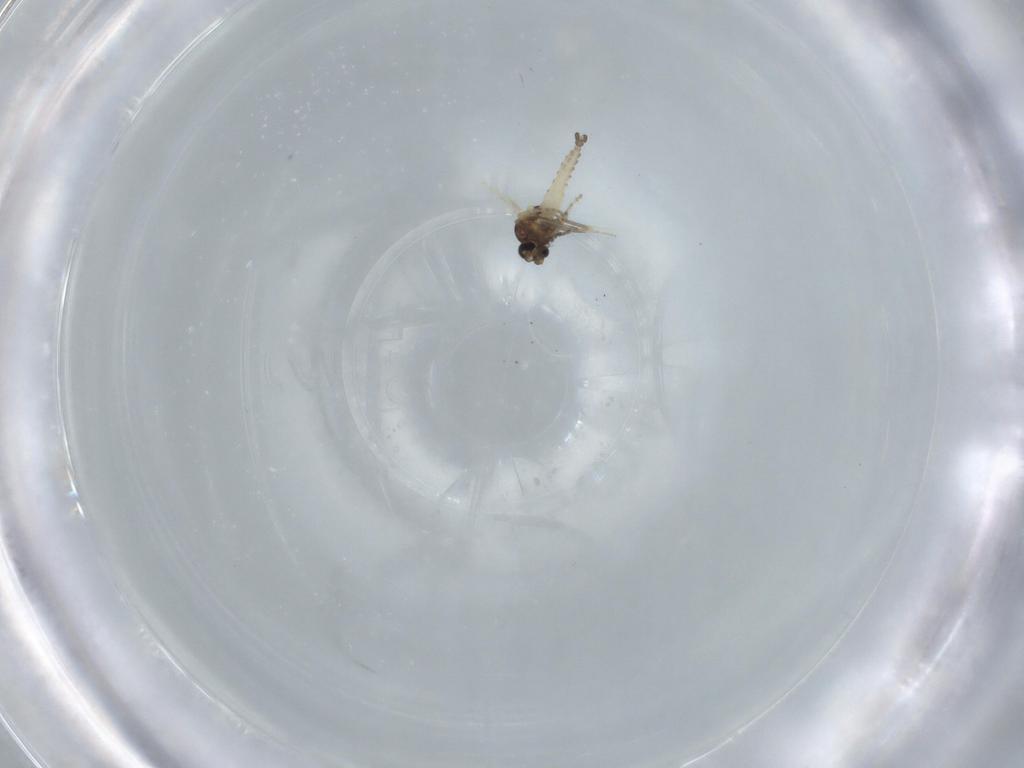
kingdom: Animalia
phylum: Arthropoda
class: Insecta
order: Diptera
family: Ceratopogonidae
